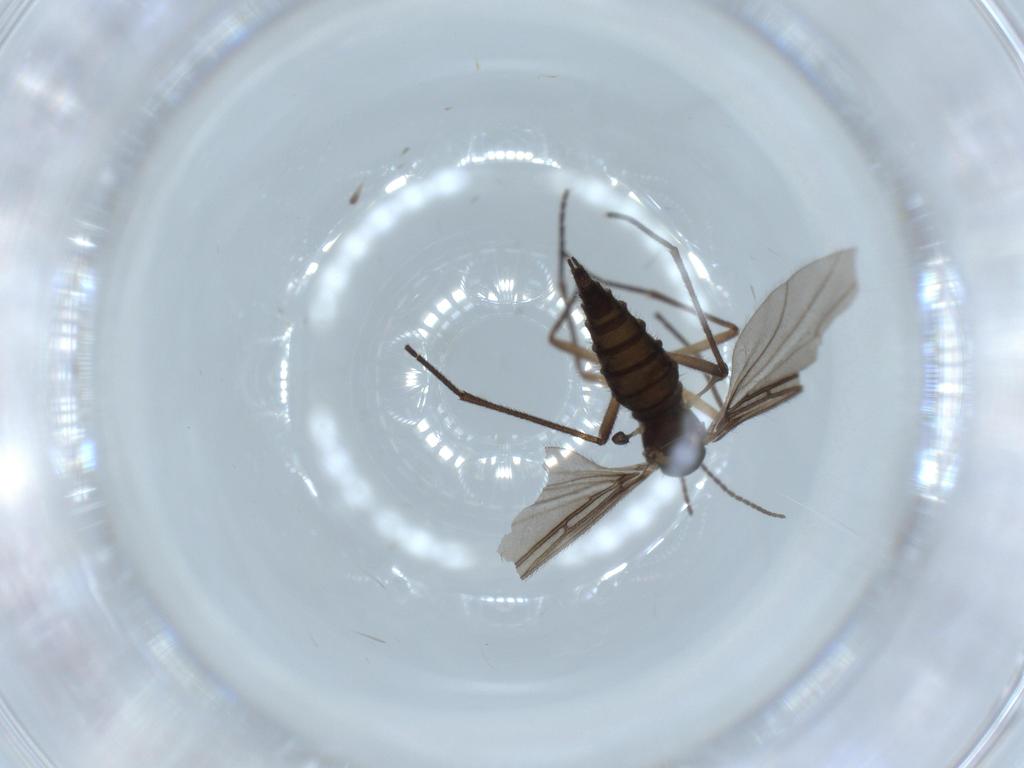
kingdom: Animalia
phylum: Arthropoda
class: Insecta
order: Diptera
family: Sciaridae
